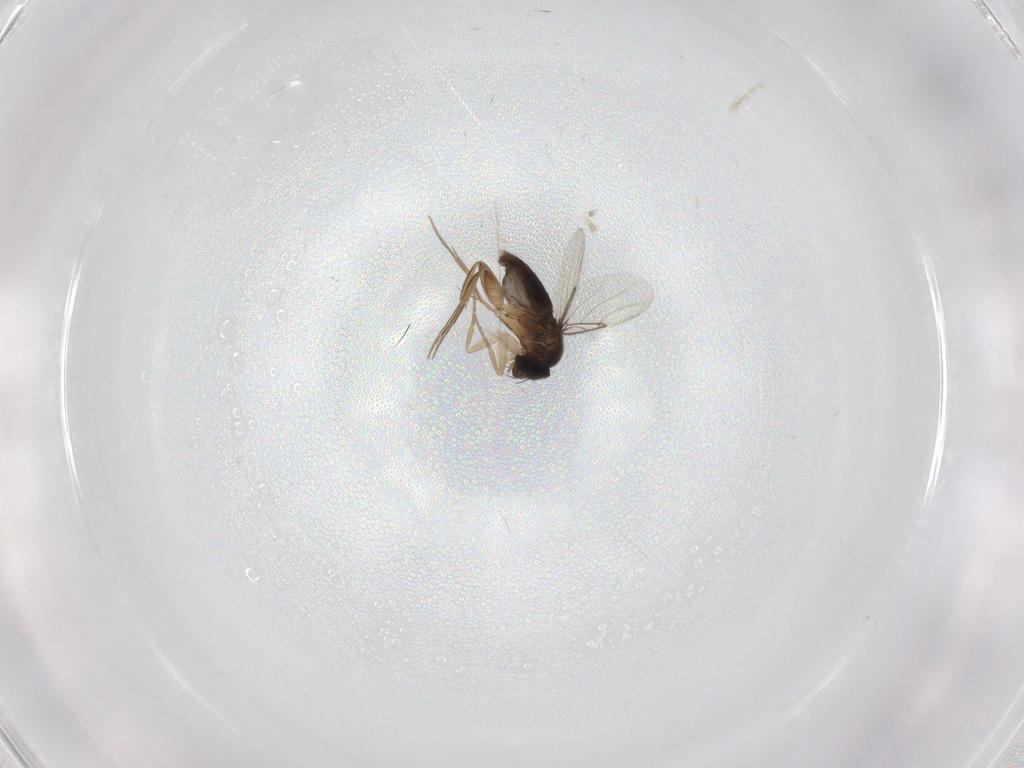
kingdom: Animalia
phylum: Arthropoda
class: Insecta
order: Diptera
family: Phoridae
